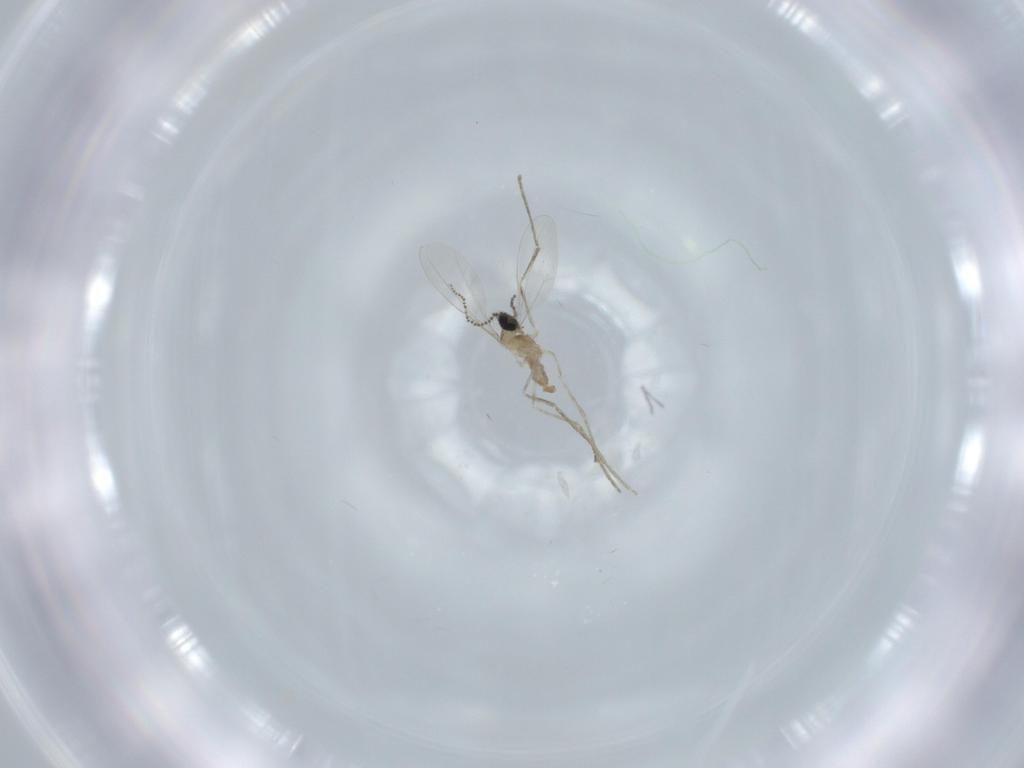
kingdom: Animalia
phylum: Arthropoda
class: Insecta
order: Diptera
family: Cecidomyiidae
